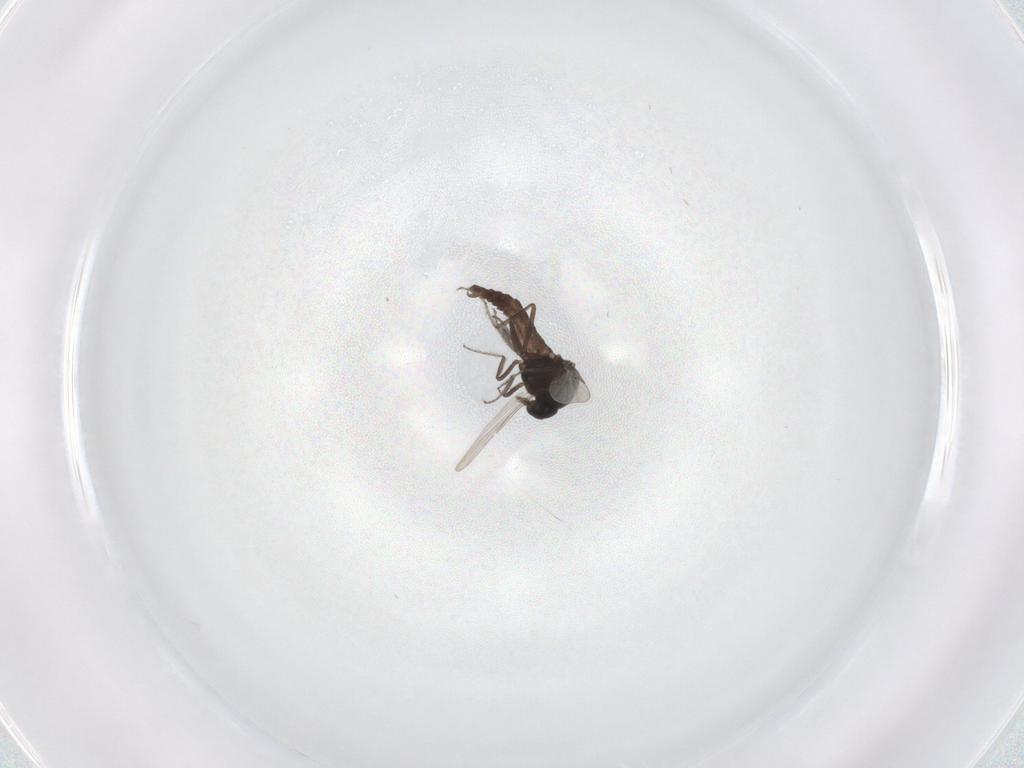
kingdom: Animalia
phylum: Arthropoda
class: Insecta
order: Diptera
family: Ceratopogonidae
